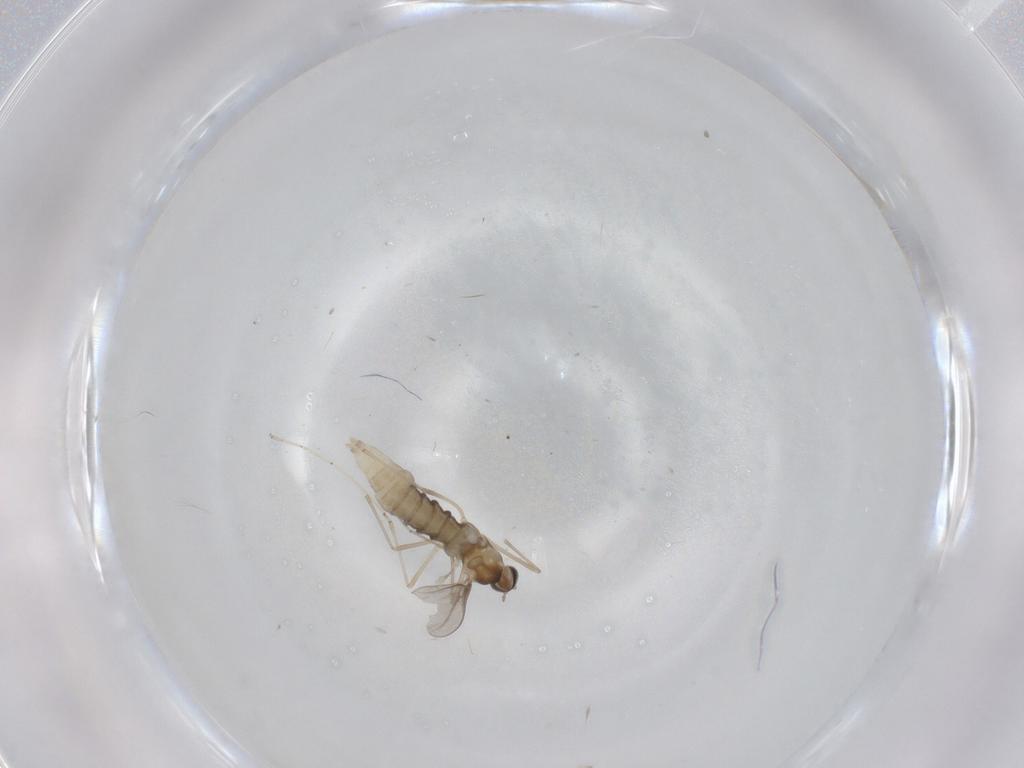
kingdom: Animalia
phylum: Arthropoda
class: Insecta
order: Diptera
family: Cecidomyiidae
